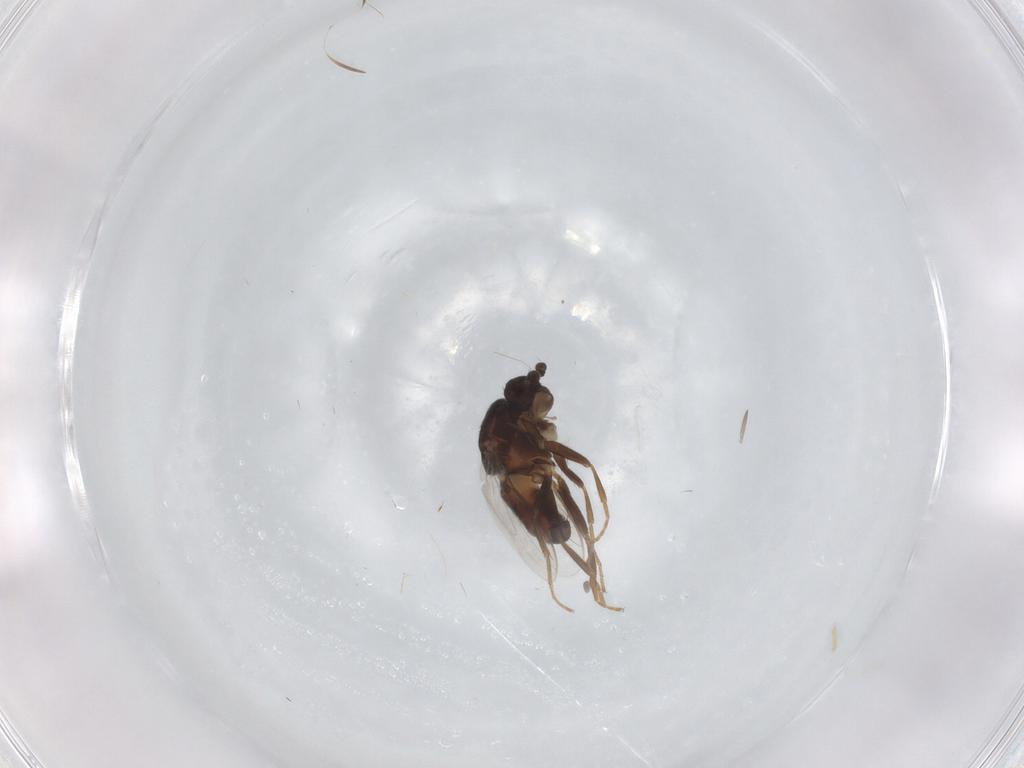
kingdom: Animalia
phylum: Arthropoda
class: Insecta
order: Diptera
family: Sphaeroceridae
